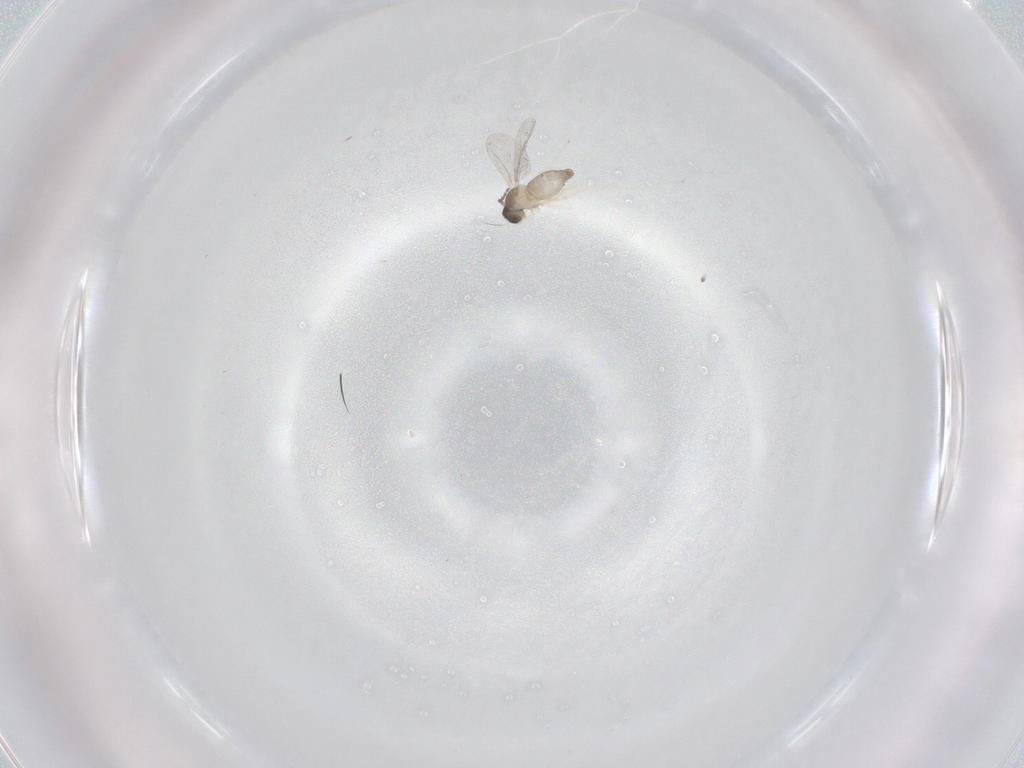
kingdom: Animalia
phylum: Arthropoda
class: Insecta
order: Diptera
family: Cecidomyiidae
